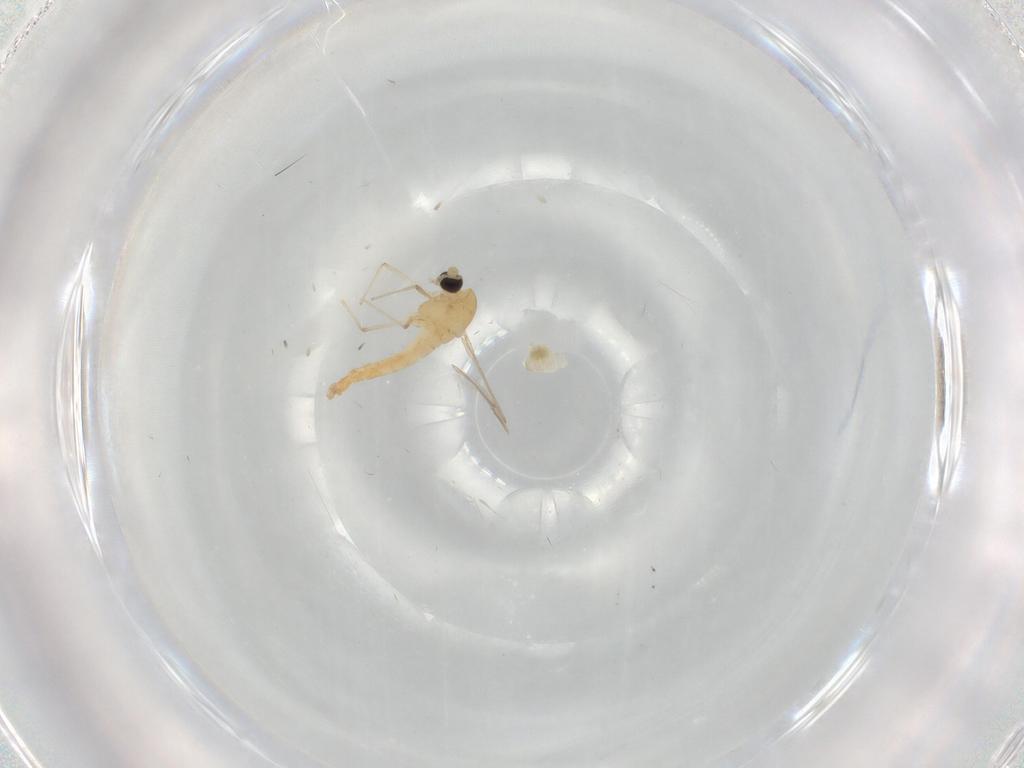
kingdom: Animalia
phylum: Arthropoda
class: Insecta
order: Diptera
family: Chironomidae
